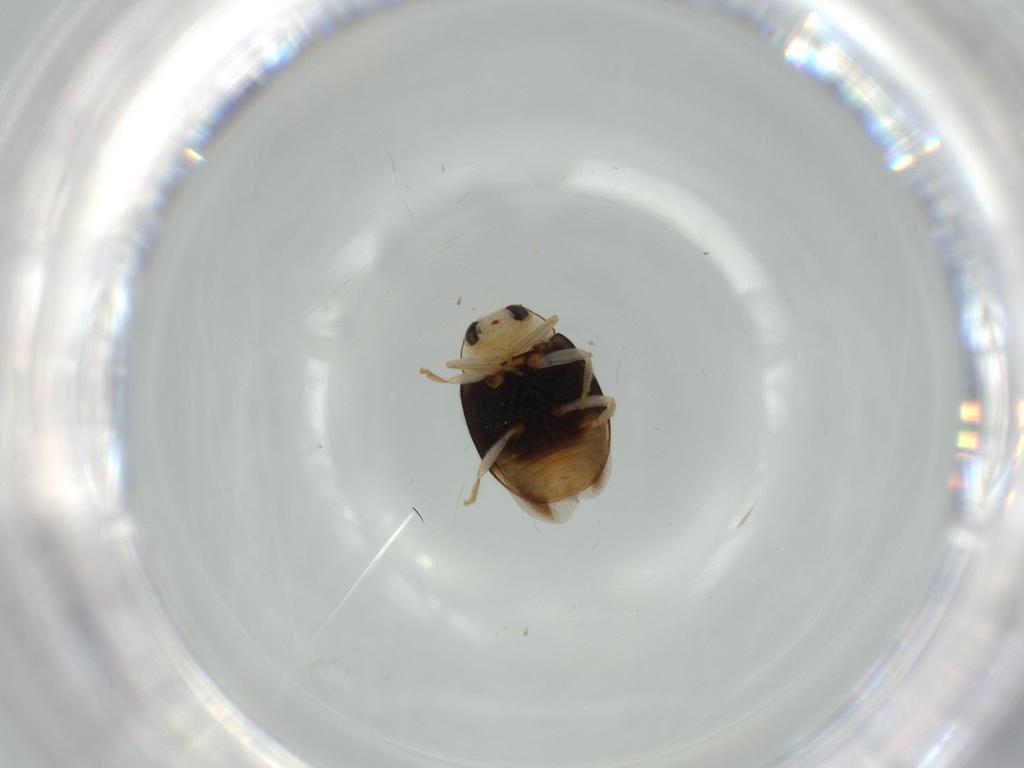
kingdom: Animalia
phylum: Arthropoda
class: Insecta
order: Coleoptera
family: Coccinellidae
